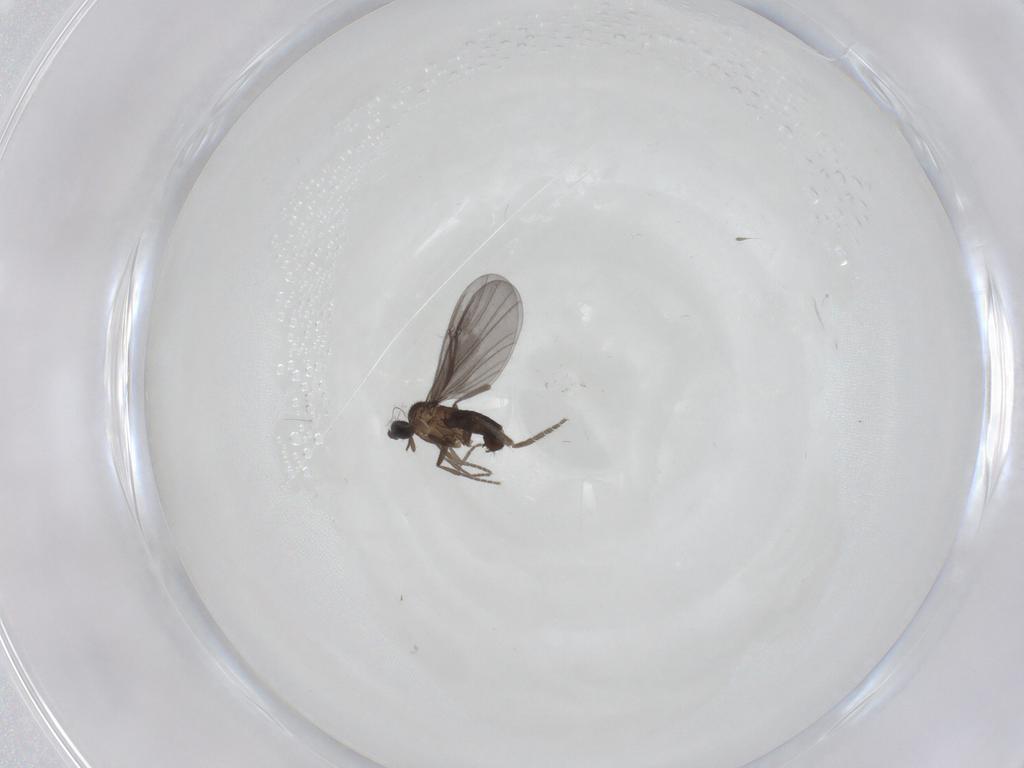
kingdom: Animalia
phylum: Arthropoda
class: Insecta
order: Diptera
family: Phoridae
